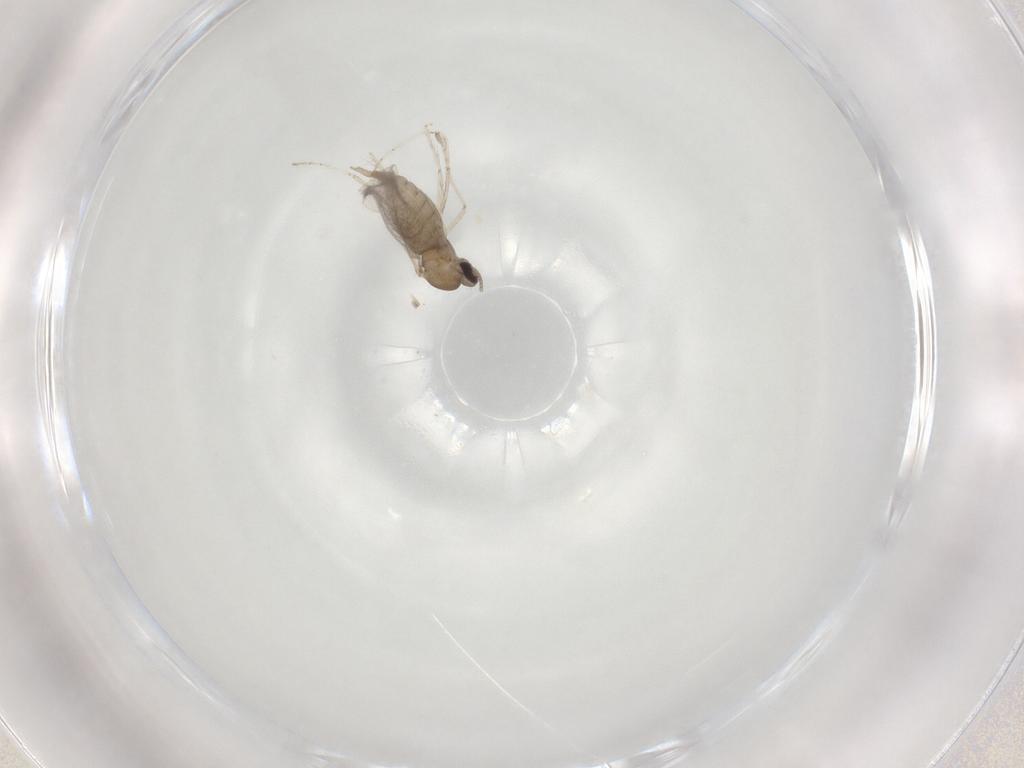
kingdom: Animalia
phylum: Arthropoda
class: Insecta
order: Diptera
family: Cecidomyiidae
